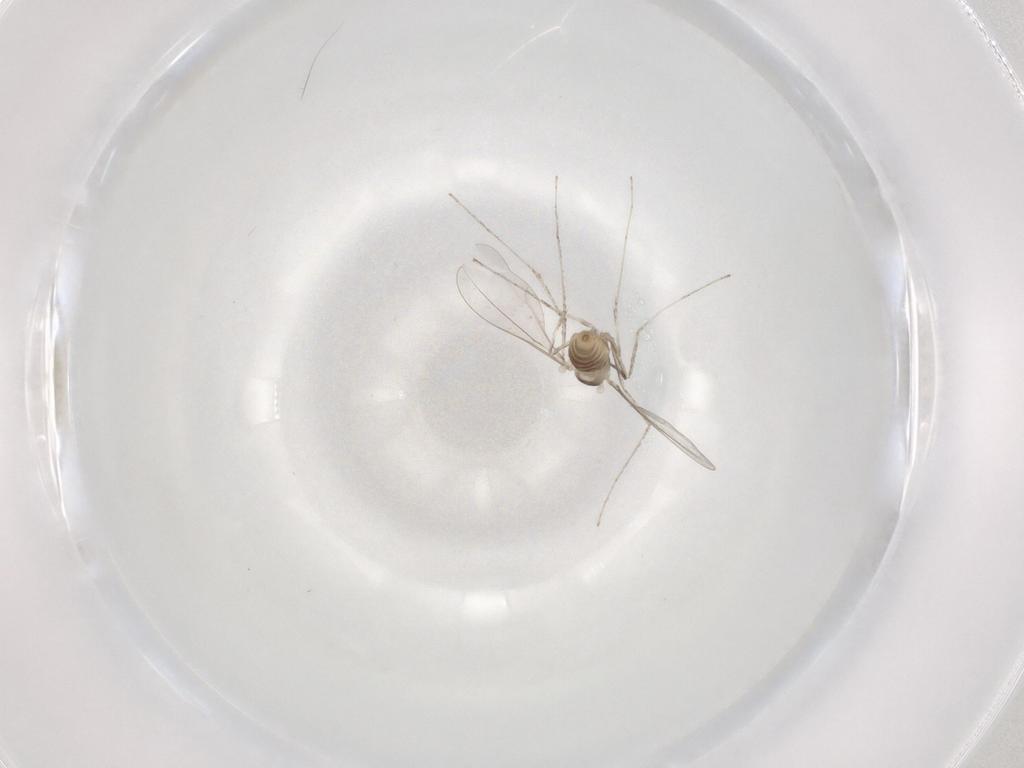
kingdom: Animalia
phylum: Arthropoda
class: Insecta
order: Diptera
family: Cecidomyiidae
